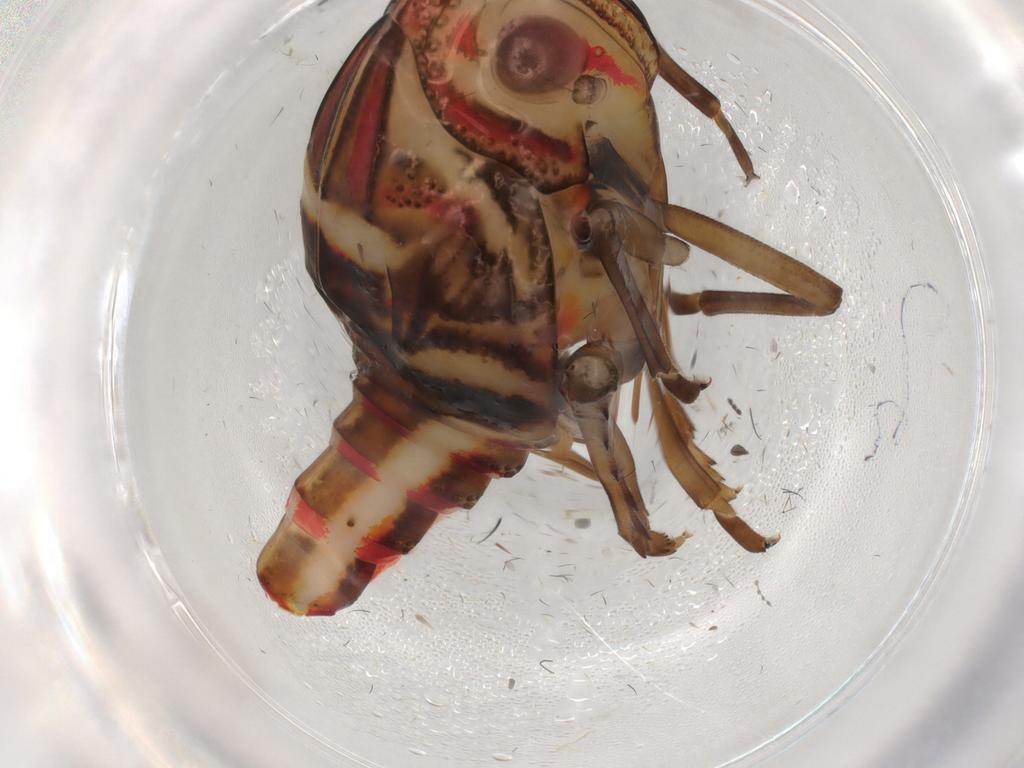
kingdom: Animalia
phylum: Arthropoda
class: Insecta
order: Hemiptera
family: Nogodinidae
